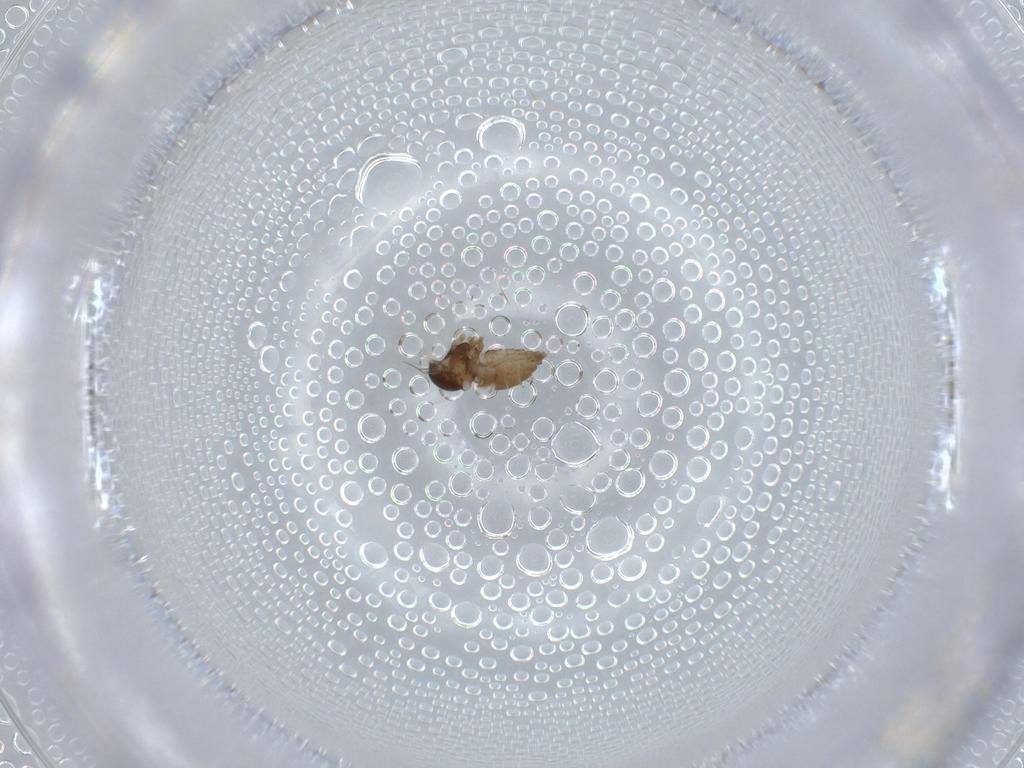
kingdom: Animalia
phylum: Arthropoda
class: Insecta
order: Diptera
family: Cecidomyiidae
